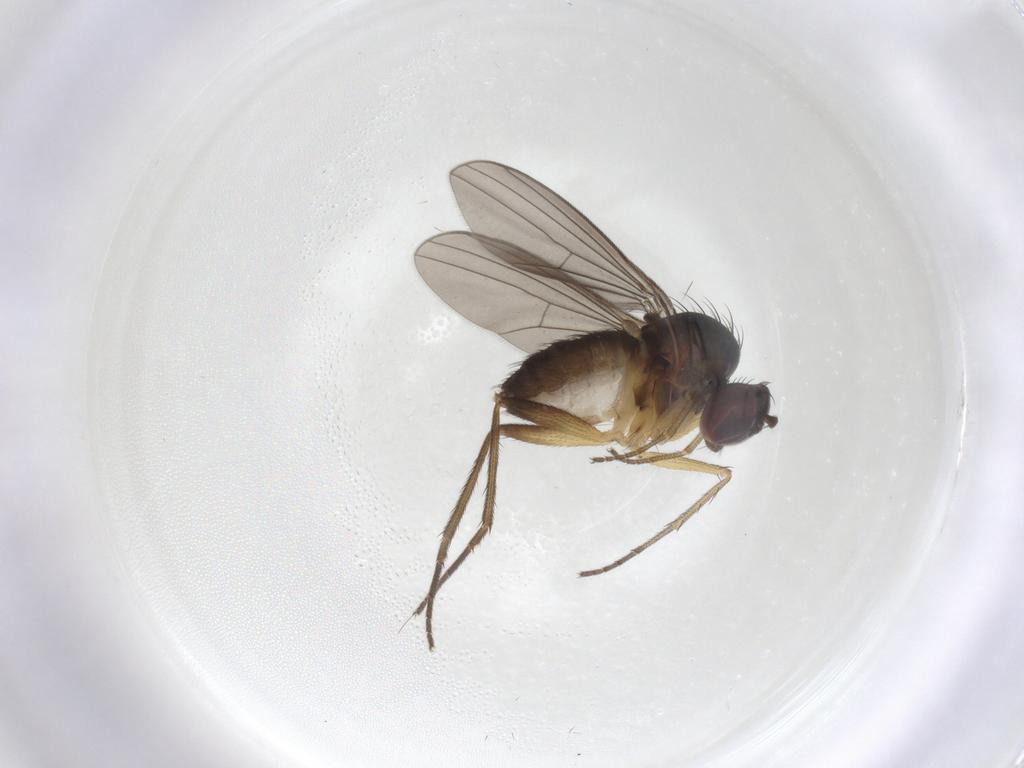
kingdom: Animalia
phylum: Arthropoda
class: Insecta
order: Diptera
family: Dolichopodidae
